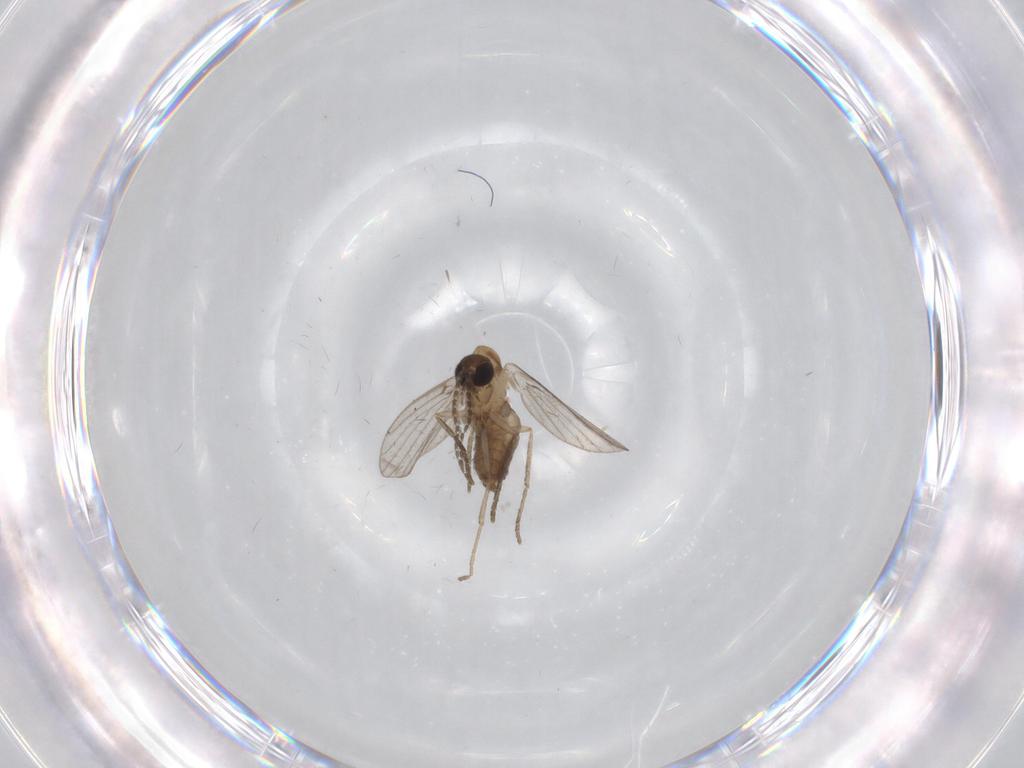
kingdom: Animalia
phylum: Arthropoda
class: Insecta
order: Diptera
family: Psychodidae
